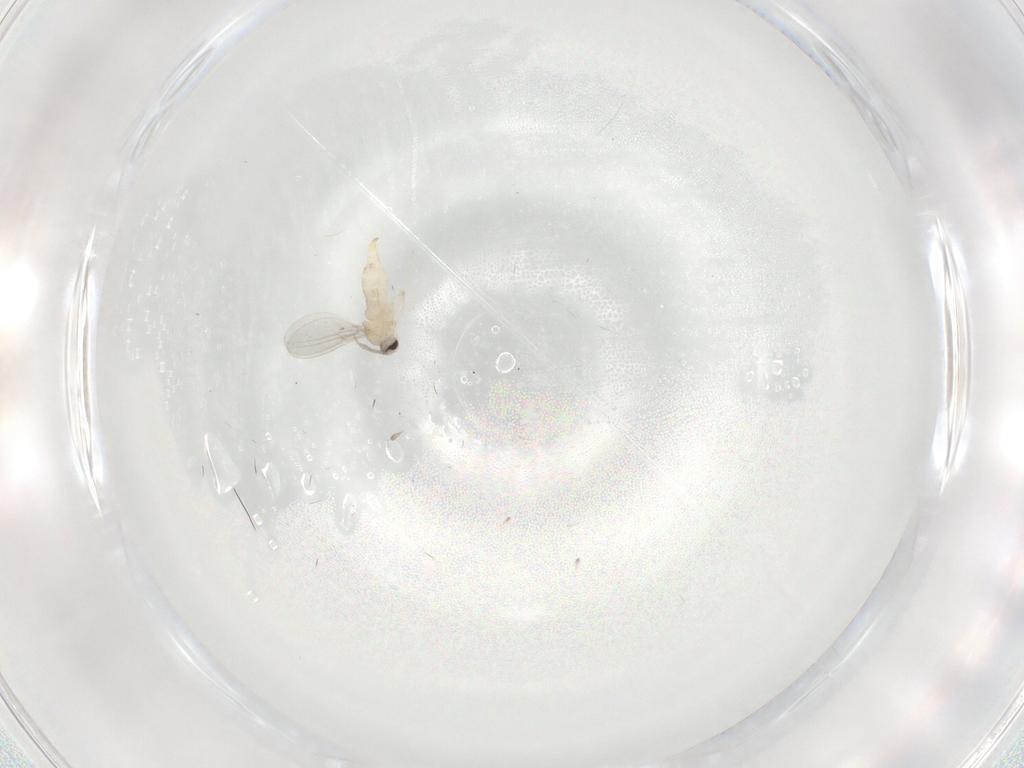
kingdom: Animalia
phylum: Arthropoda
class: Insecta
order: Diptera
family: Cecidomyiidae
